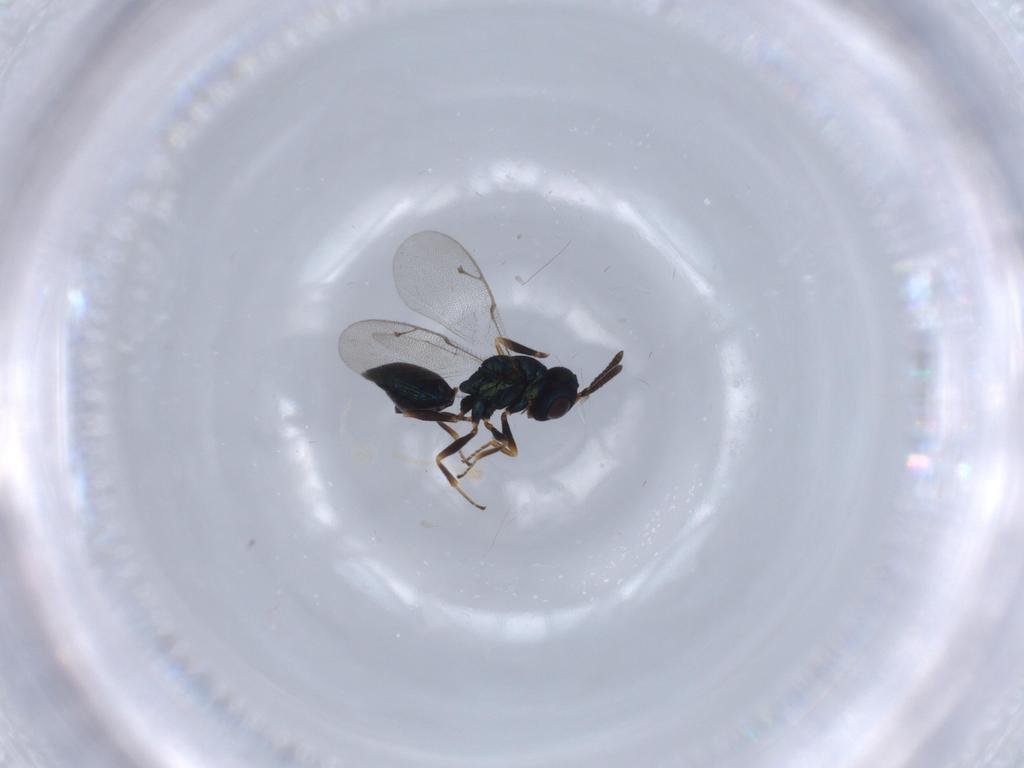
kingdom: Animalia
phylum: Arthropoda
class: Insecta
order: Hymenoptera
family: Pteromalidae
